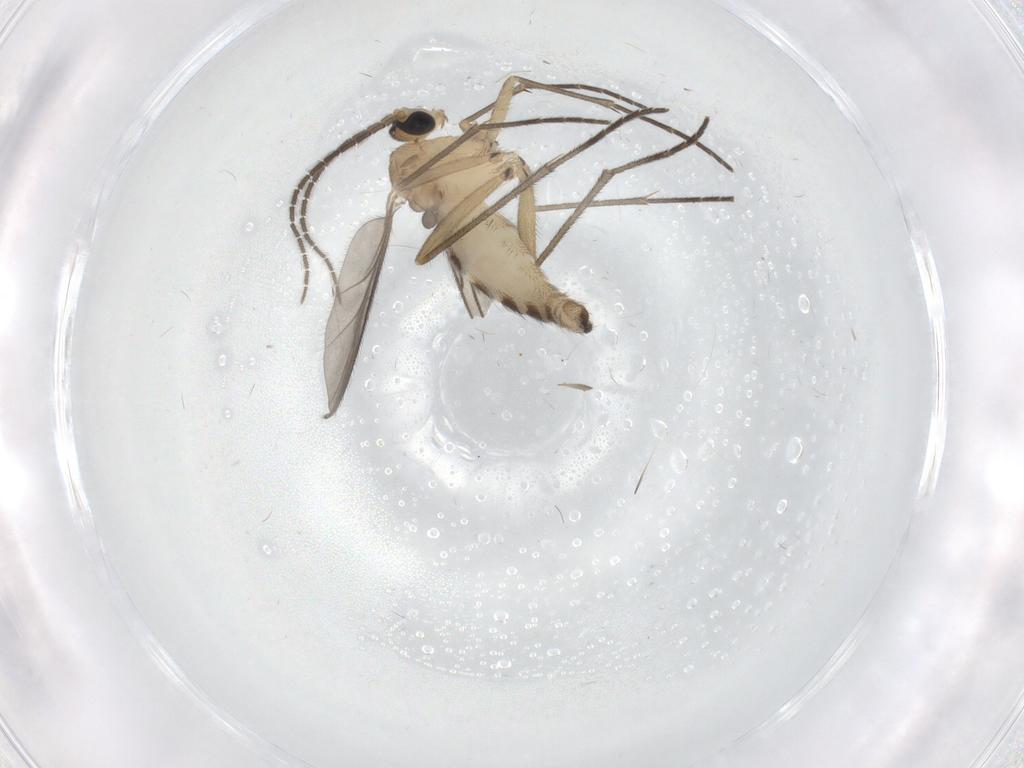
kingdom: Animalia
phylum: Arthropoda
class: Insecta
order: Diptera
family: Sciaridae
